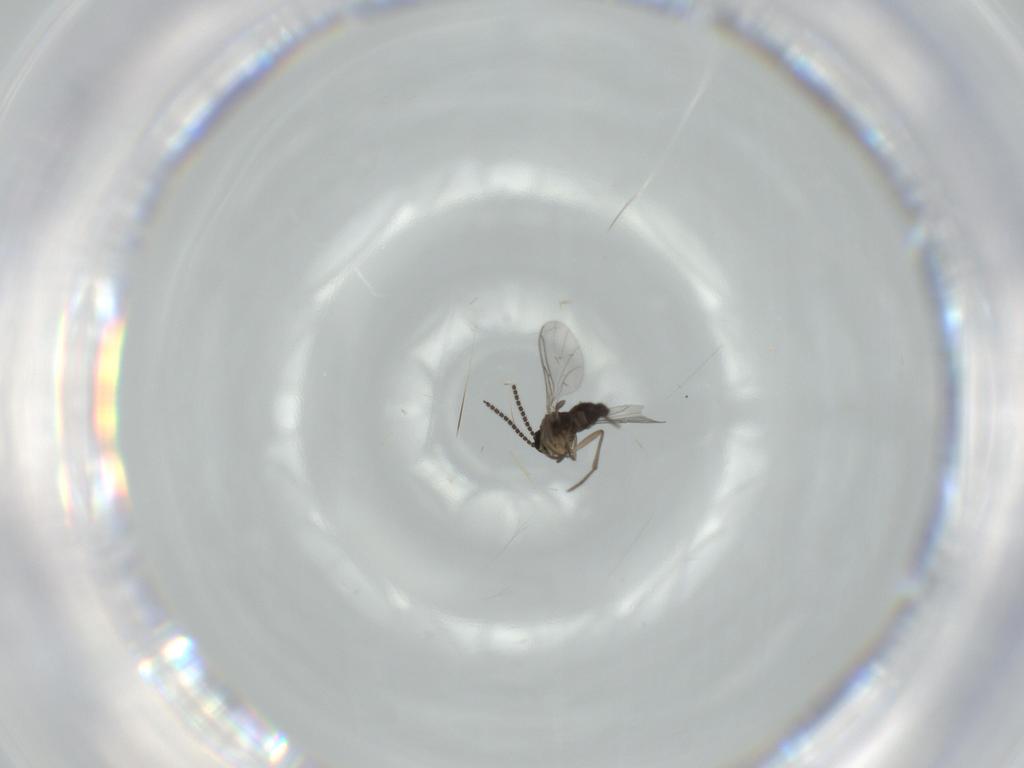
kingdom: Animalia
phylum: Arthropoda
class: Insecta
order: Diptera
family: Sciaridae
